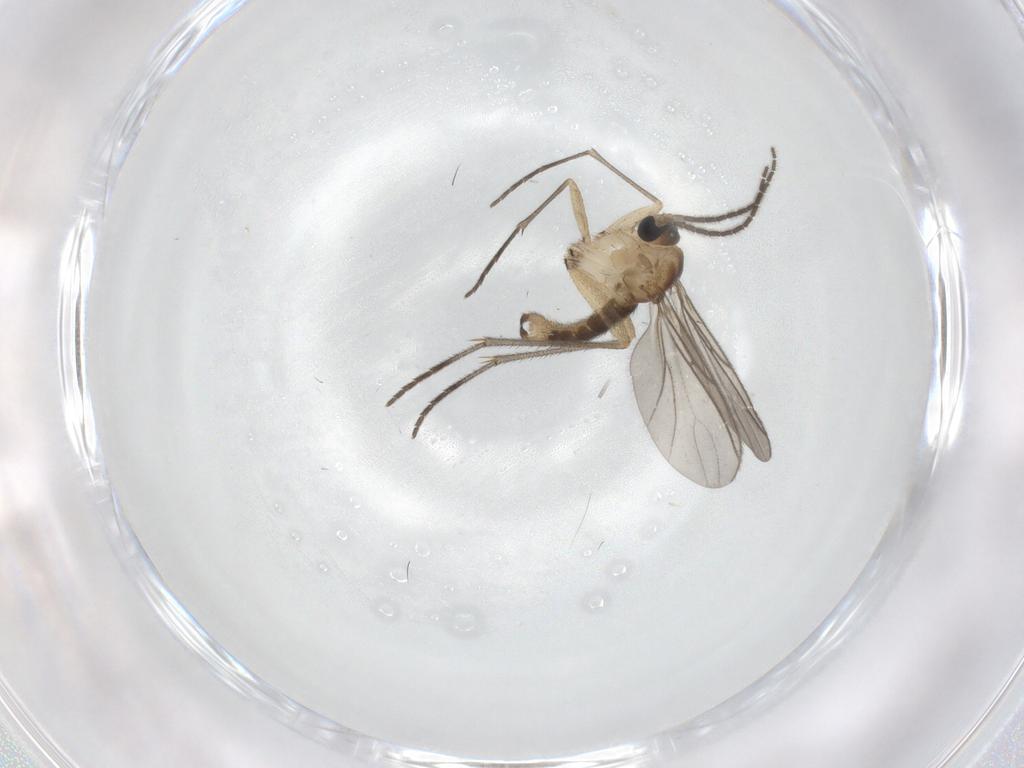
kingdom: Animalia
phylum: Arthropoda
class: Insecta
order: Diptera
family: Sciaridae
